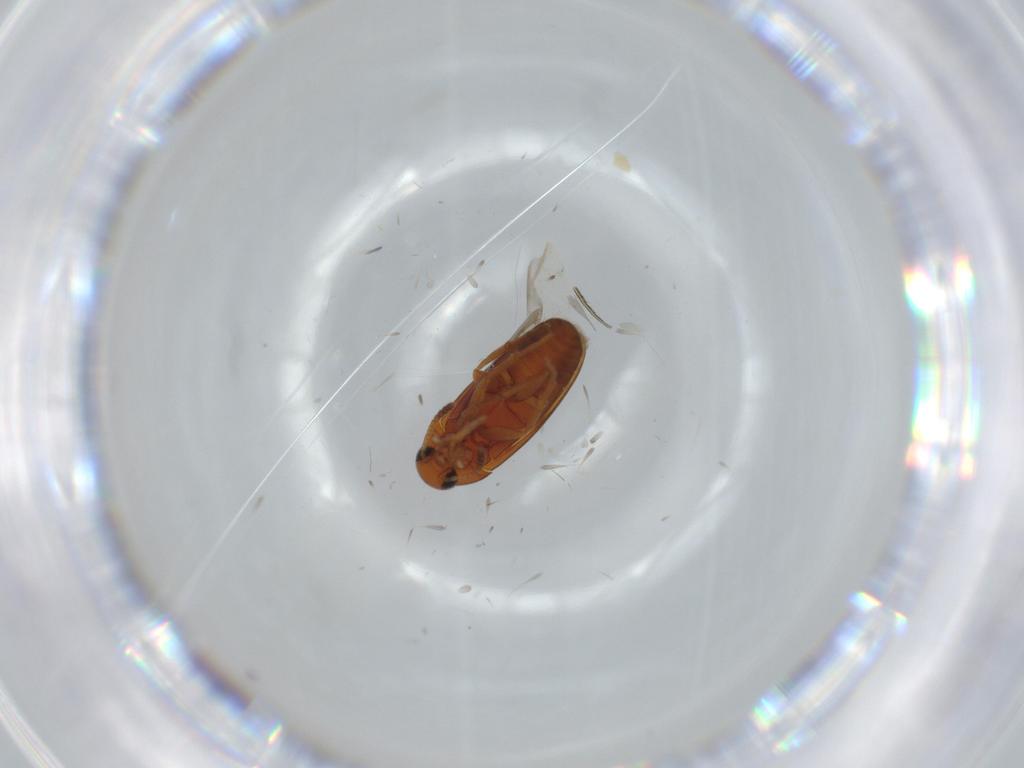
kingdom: Animalia
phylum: Arthropoda
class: Insecta
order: Coleoptera
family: Scraptiidae
